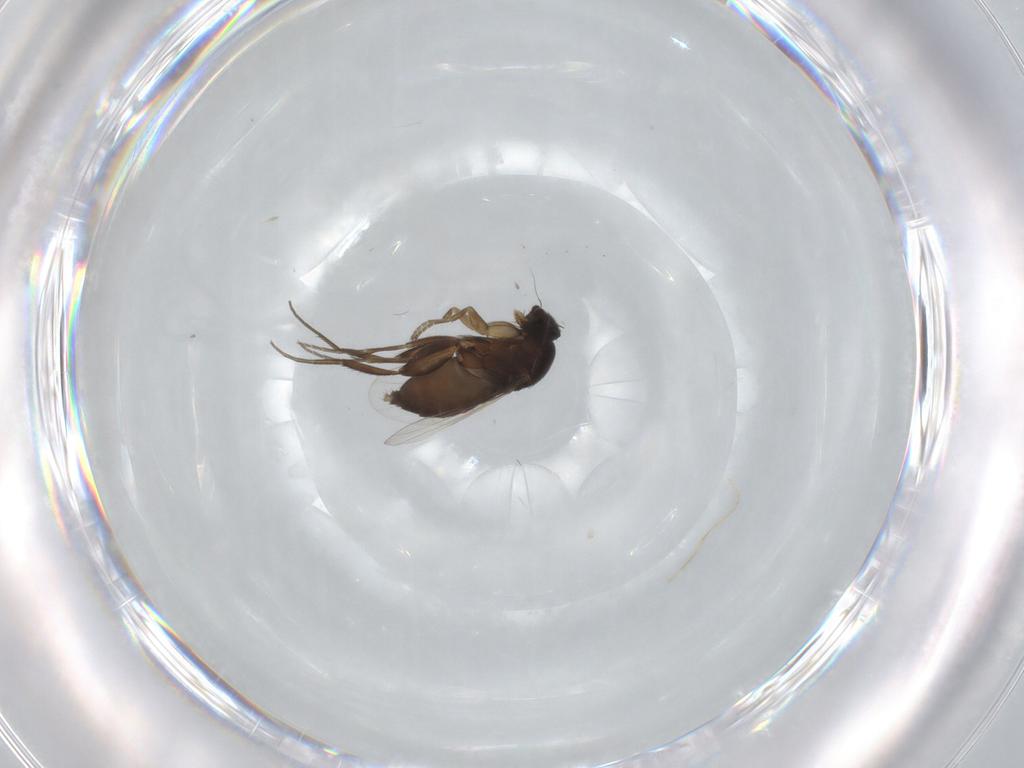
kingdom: Animalia
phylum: Arthropoda
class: Insecta
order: Diptera
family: Phoridae
